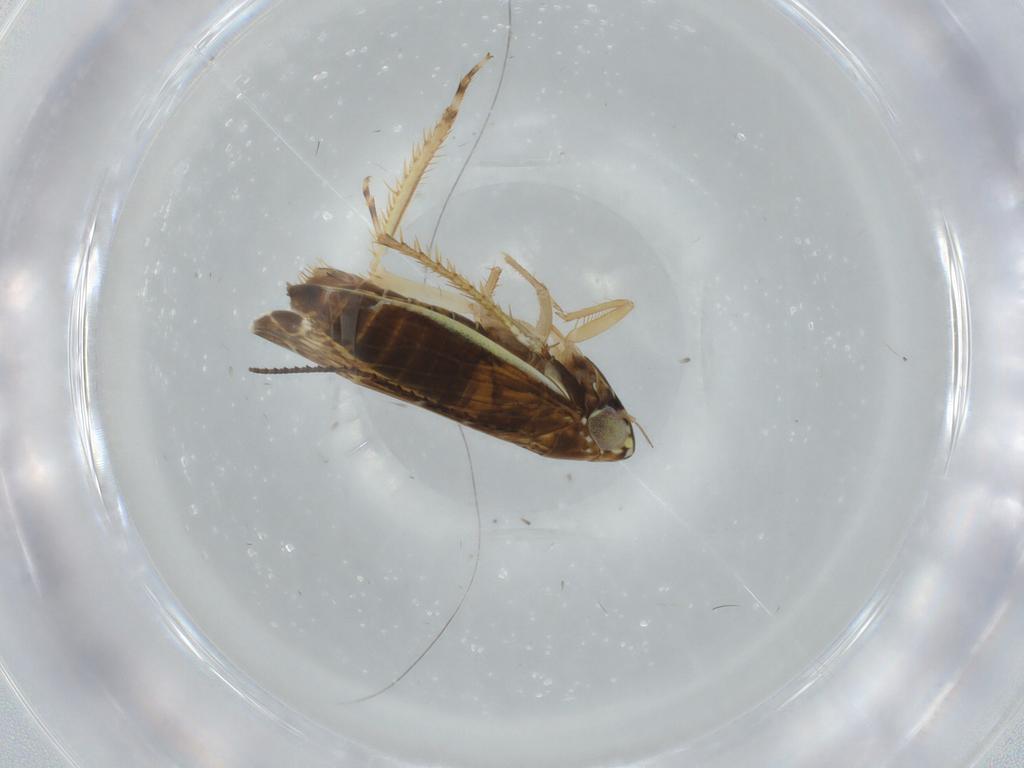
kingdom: Animalia
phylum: Arthropoda
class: Insecta
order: Hemiptera
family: Cicadellidae
